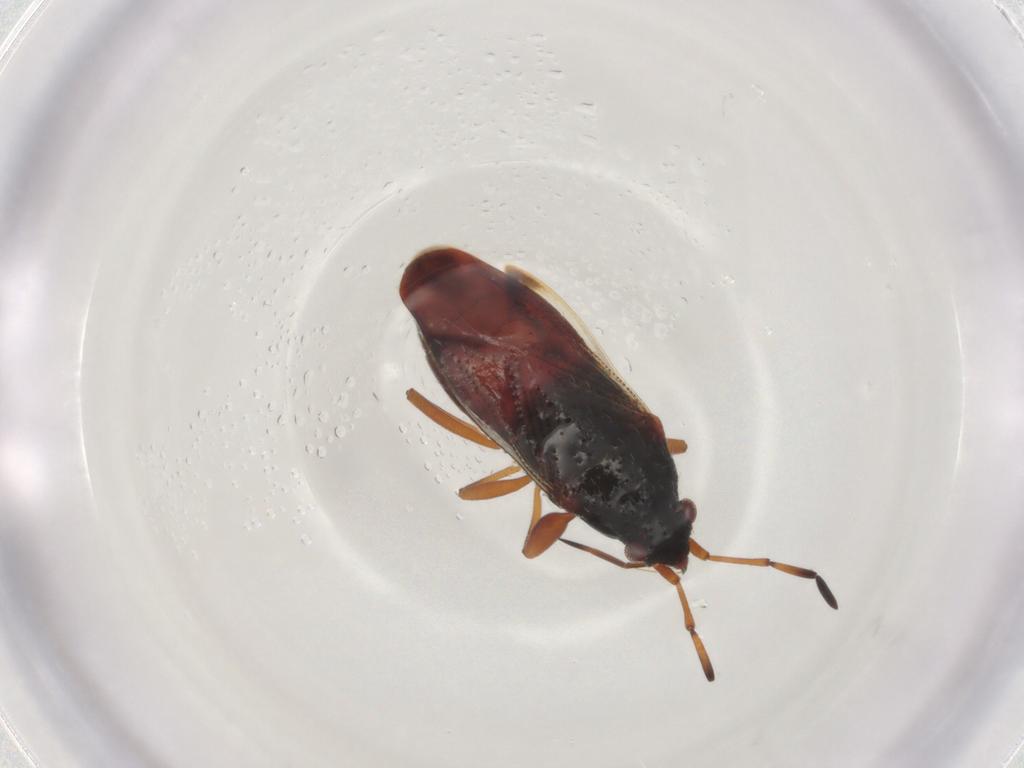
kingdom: Animalia
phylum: Arthropoda
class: Insecta
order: Hemiptera
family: Rhyparochromidae
